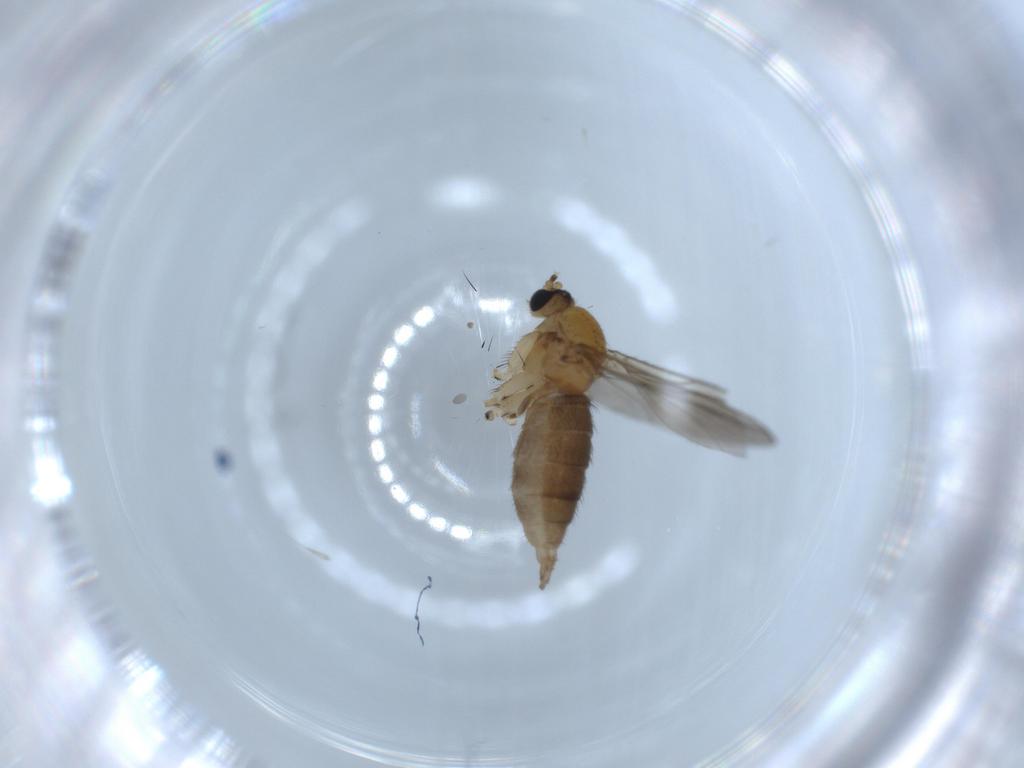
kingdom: Animalia
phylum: Arthropoda
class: Insecta
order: Diptera
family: Sciaridae
